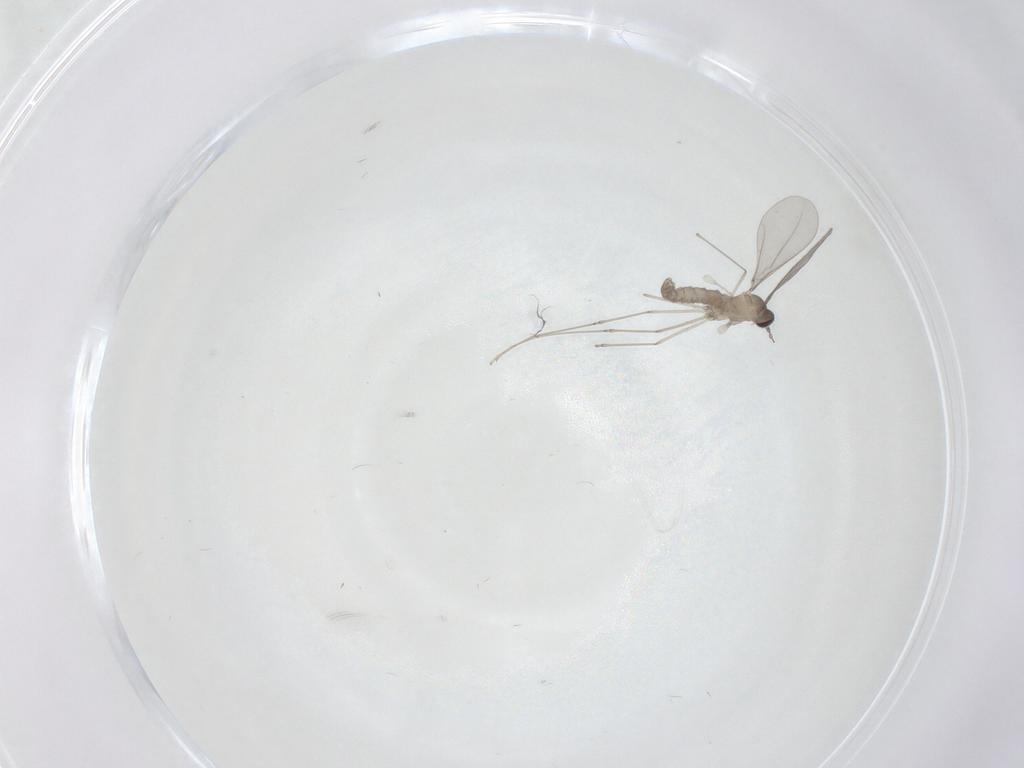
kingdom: Animalia
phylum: Arthropoda
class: Insecta
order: Diptera
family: Cecidomyiidae
